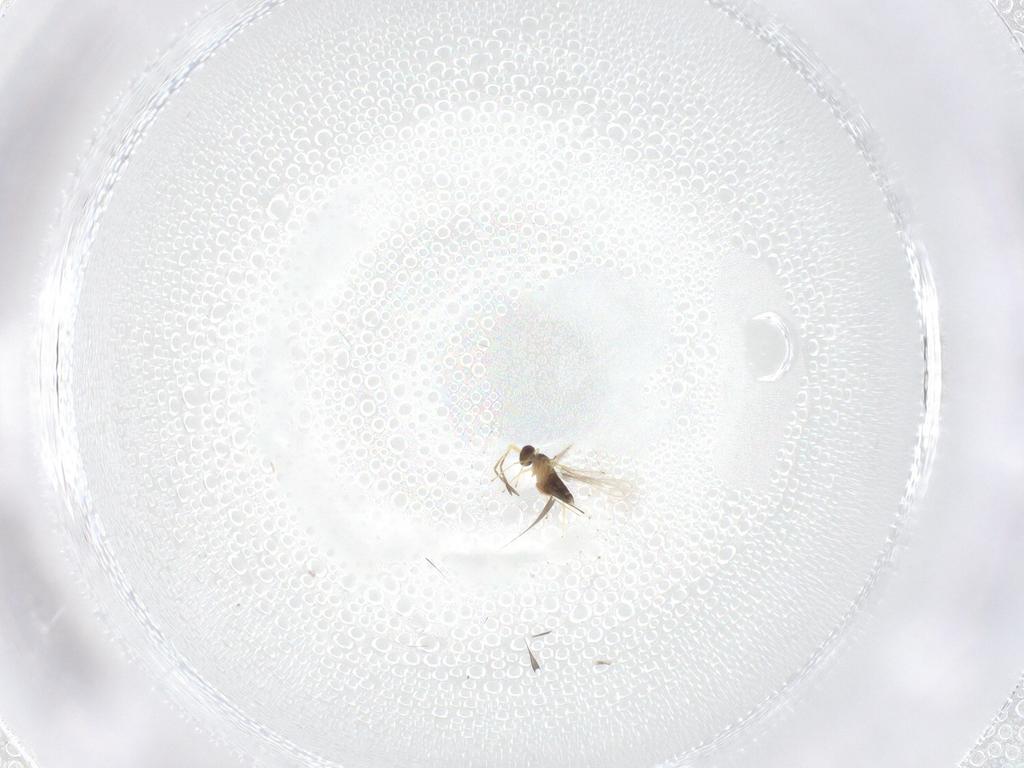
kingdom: Animalia
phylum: Arthropoda
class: Insecta
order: Hymenoptera
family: Mymaridae
